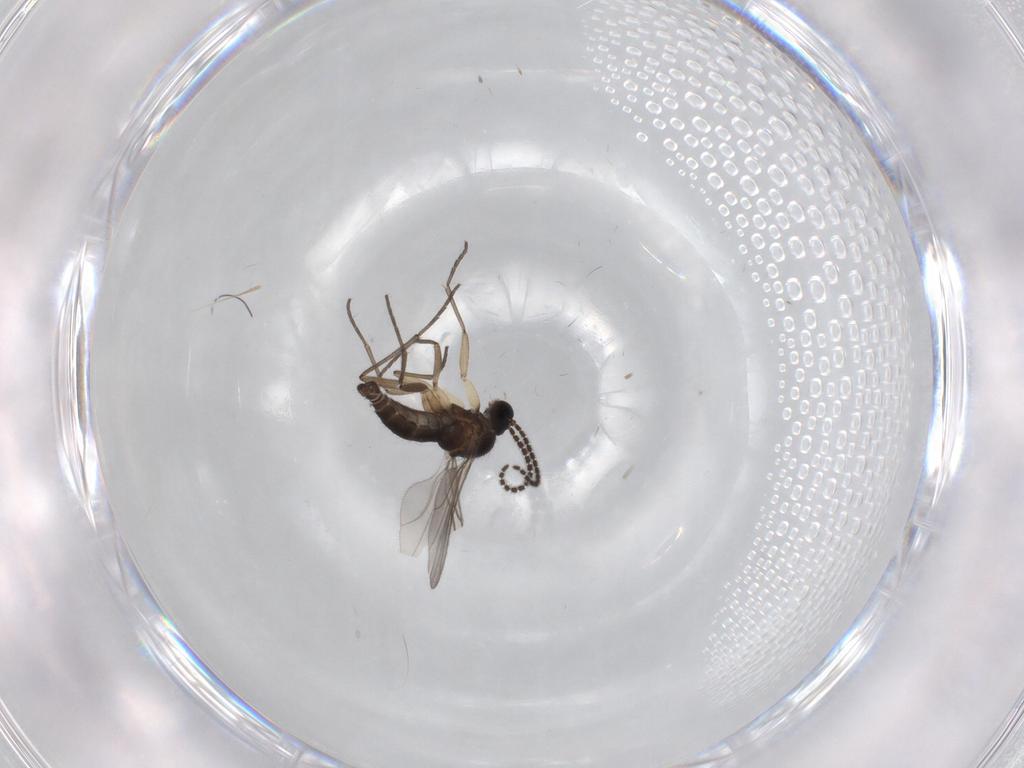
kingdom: Animalia
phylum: Arthropoda
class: Insecta
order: Diptera
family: Sciaridae
